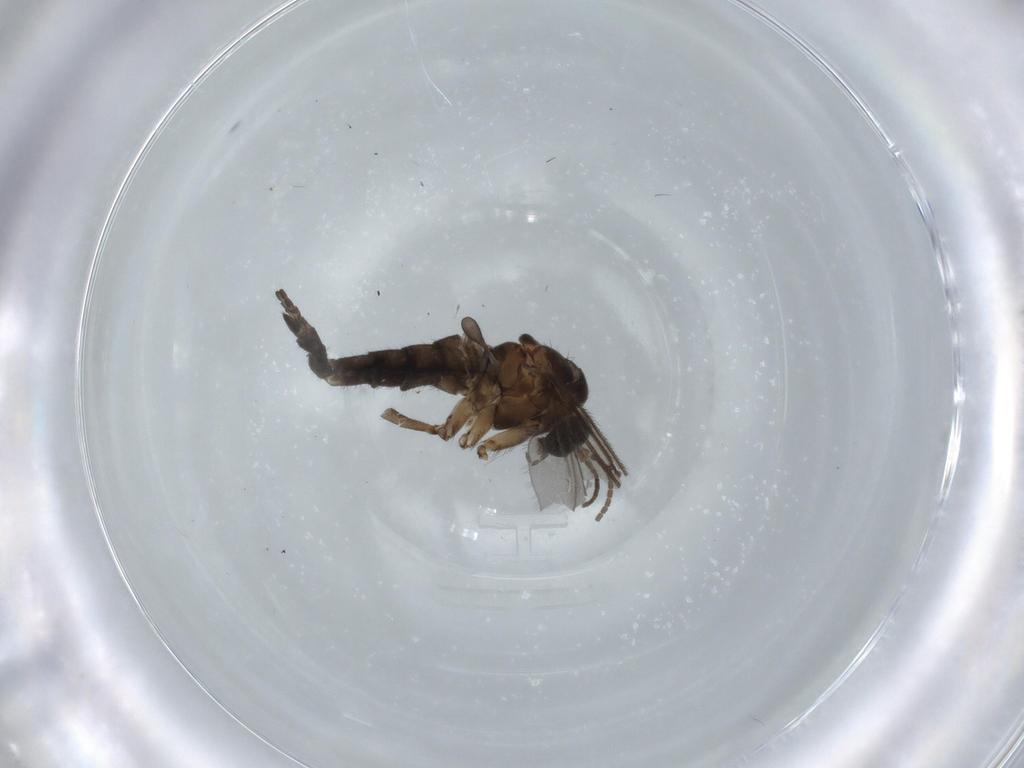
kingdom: Animalia
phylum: Arthropoda
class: Insecta
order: Diptera
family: Sciaridae
